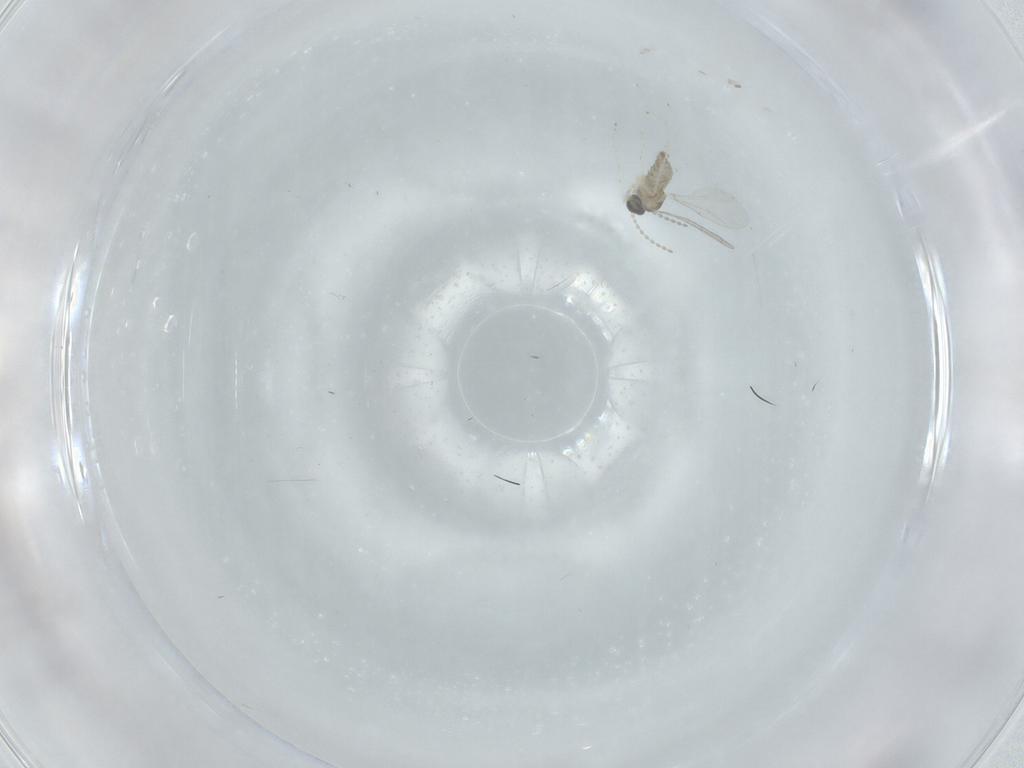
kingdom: Animalia
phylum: Arthropoda
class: Insecta
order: Diptera
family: Cecidomyiidae
